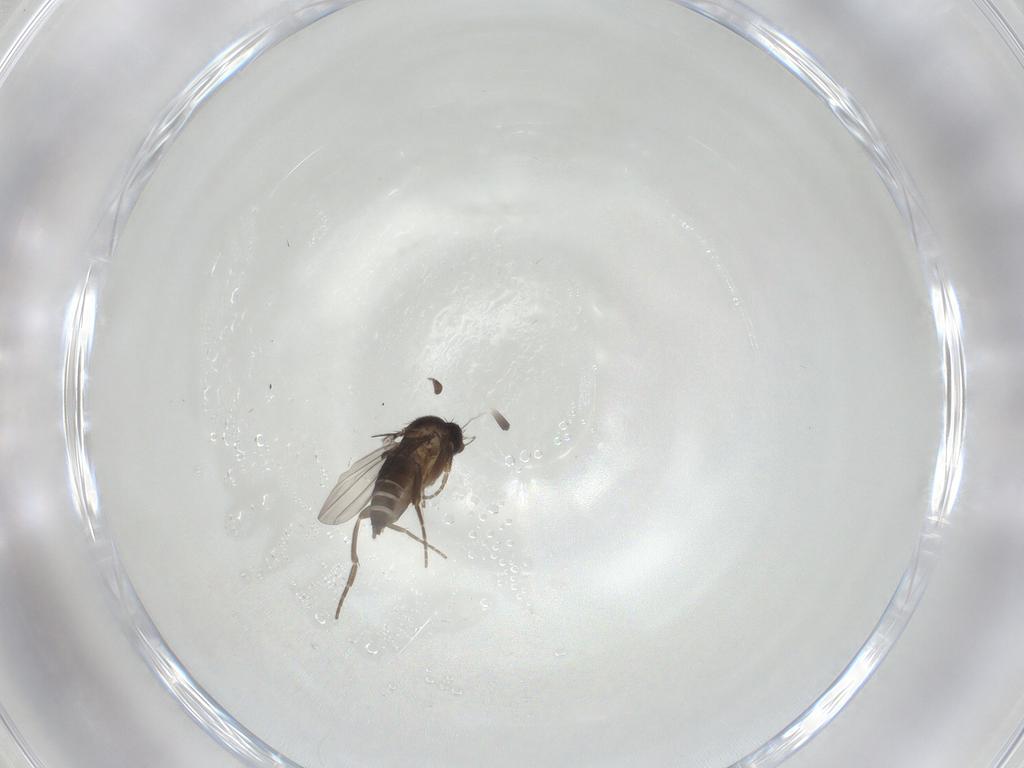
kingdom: Animalia
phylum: Arthropoda
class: Insecta
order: Diptera
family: Phoridae
